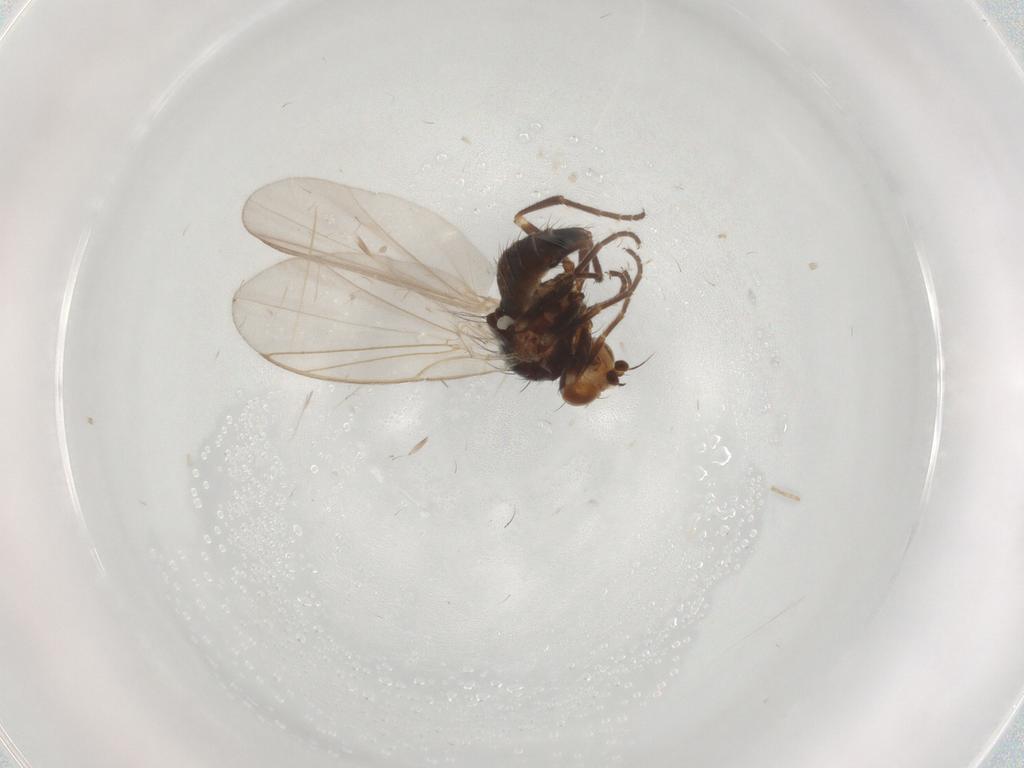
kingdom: Animalia
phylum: Arthropoda
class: Insecta
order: Diptera
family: Agromyzidae
